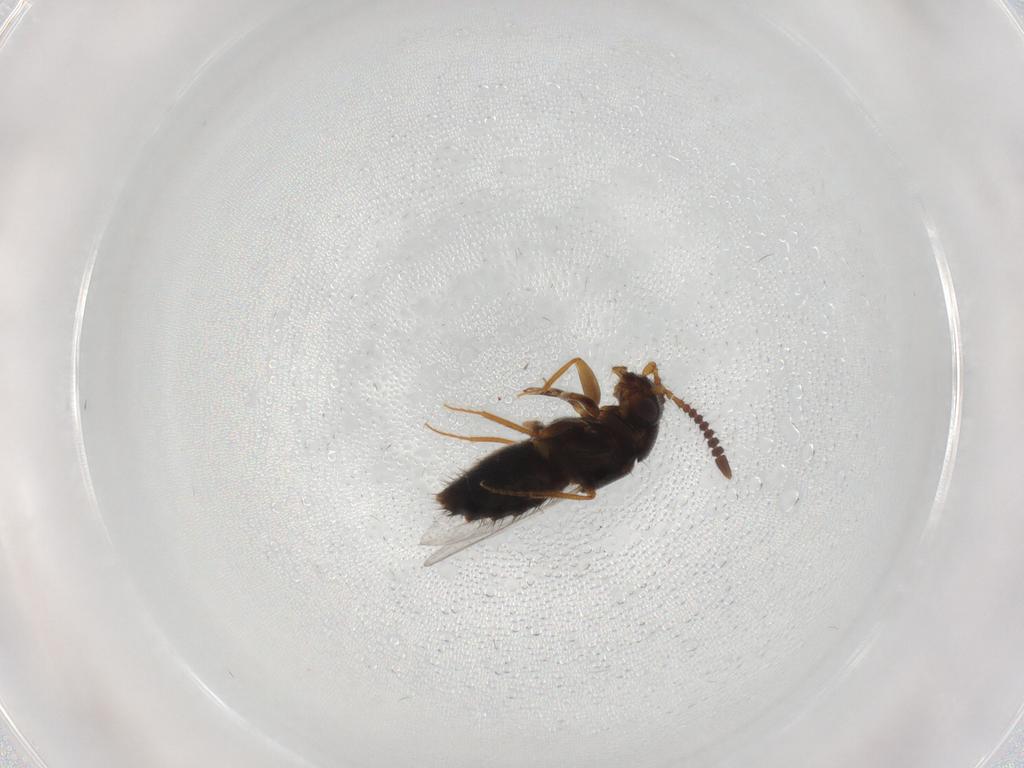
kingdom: Animalia
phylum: Arthropoda
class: Insecta
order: Coleoptera
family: Staphylinidae
